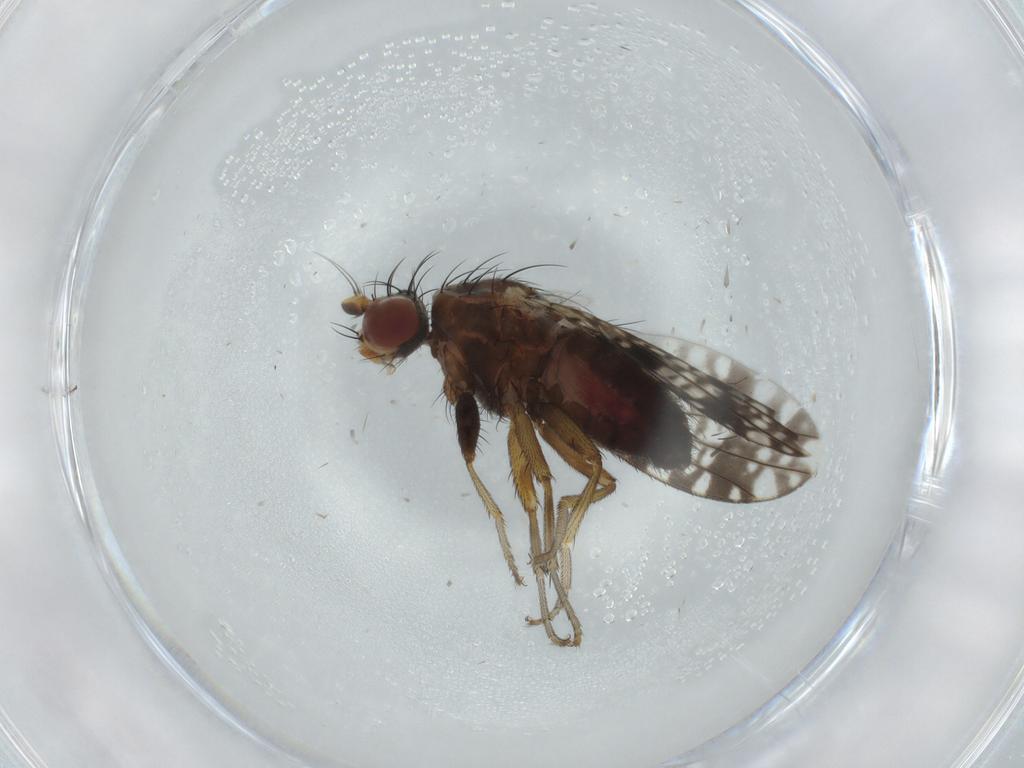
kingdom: Animalia
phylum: Arthropoda
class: Insecta
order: Diptera
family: Tephritidae
